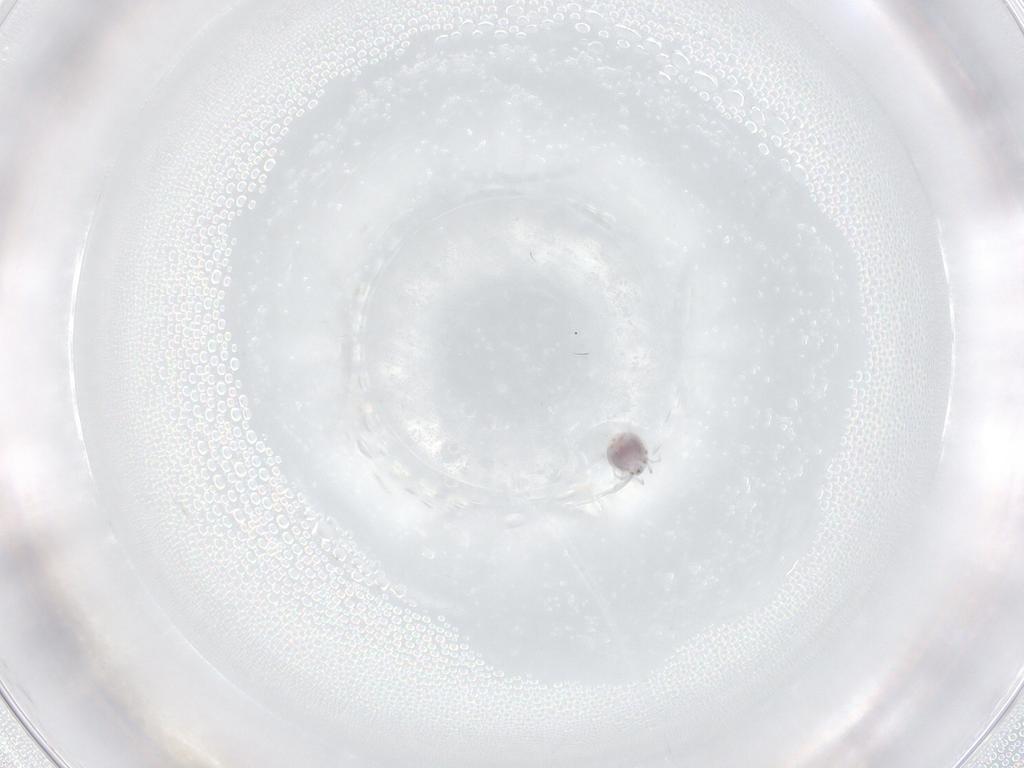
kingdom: Animalia
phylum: Arthropoda
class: Arachnida
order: Trombidiformes
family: Pionidae
